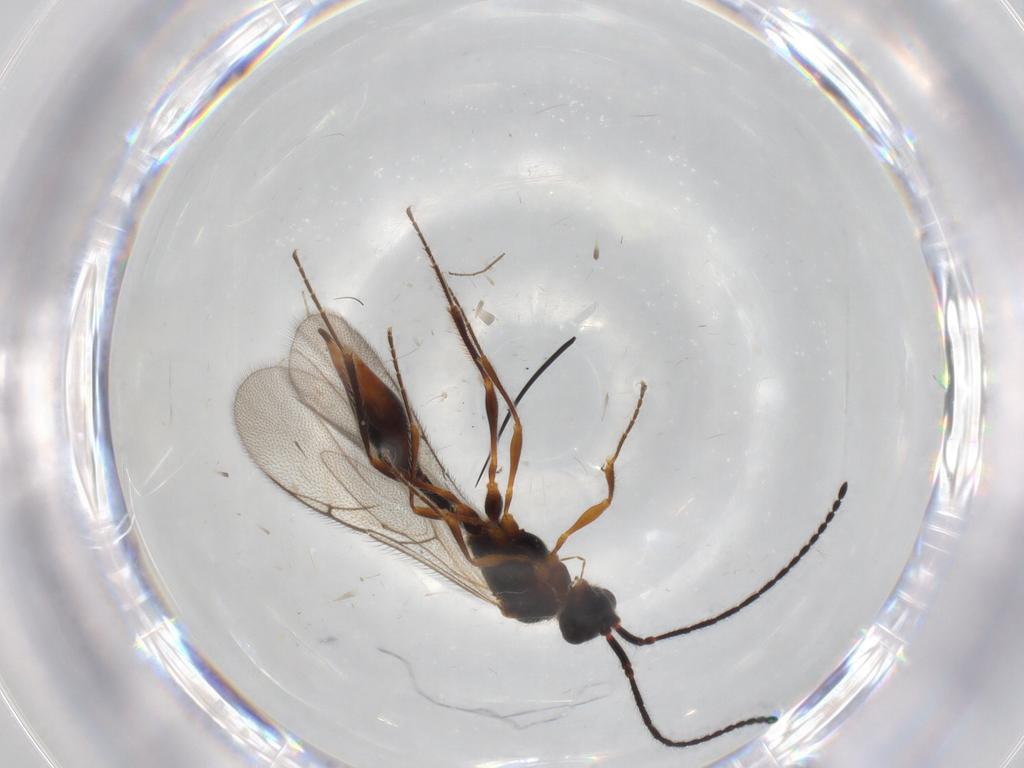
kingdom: Animalia
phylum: Arthropoda
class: Insecta
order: Hymenoptera
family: Diapriidae
